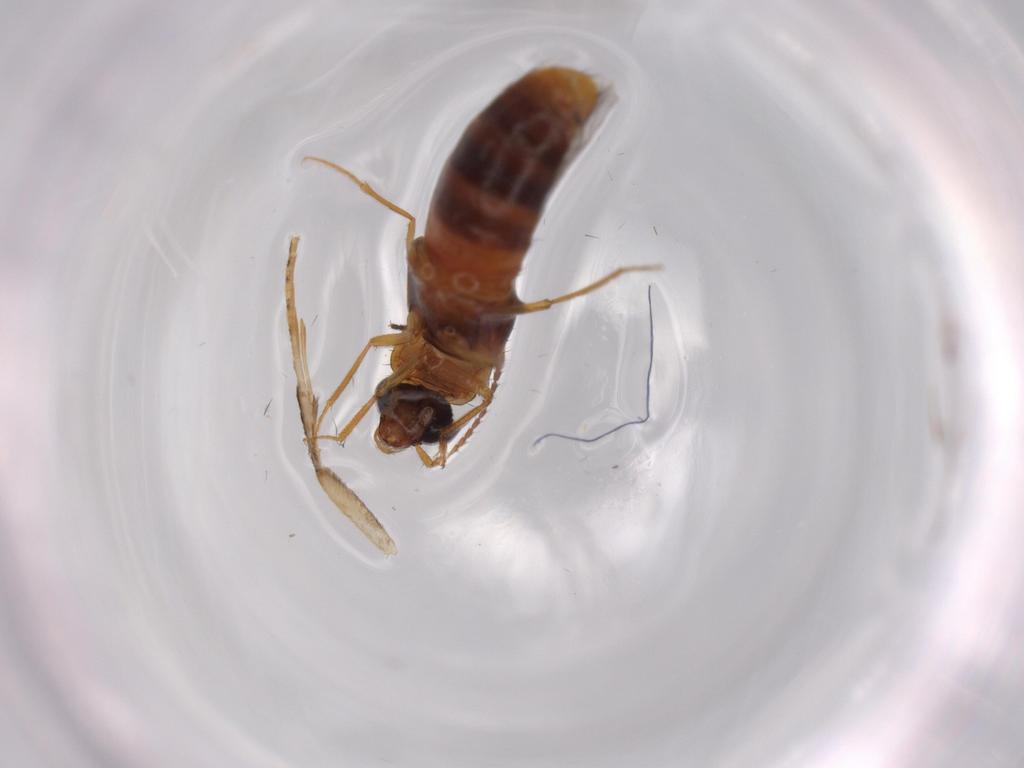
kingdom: Animalia
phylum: Arthropoda
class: Insecta
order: Coleoptera
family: Staphylinidae
